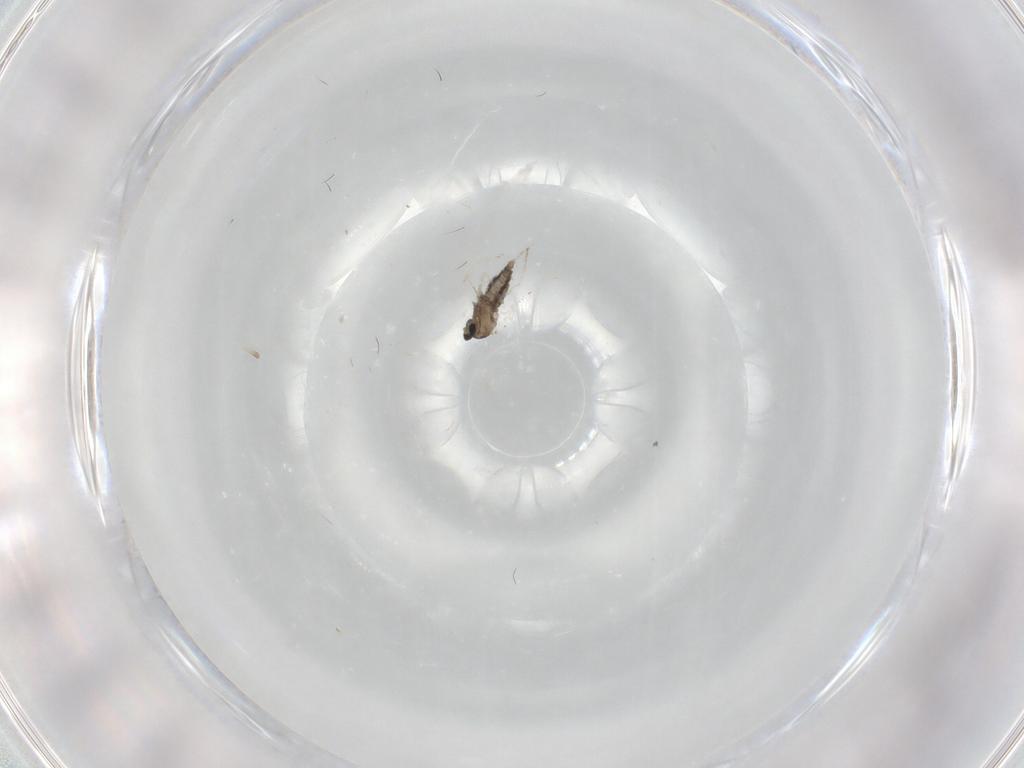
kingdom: Animalia
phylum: Arthropoda
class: Insecta
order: Diptera
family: Cecidomyiidae
